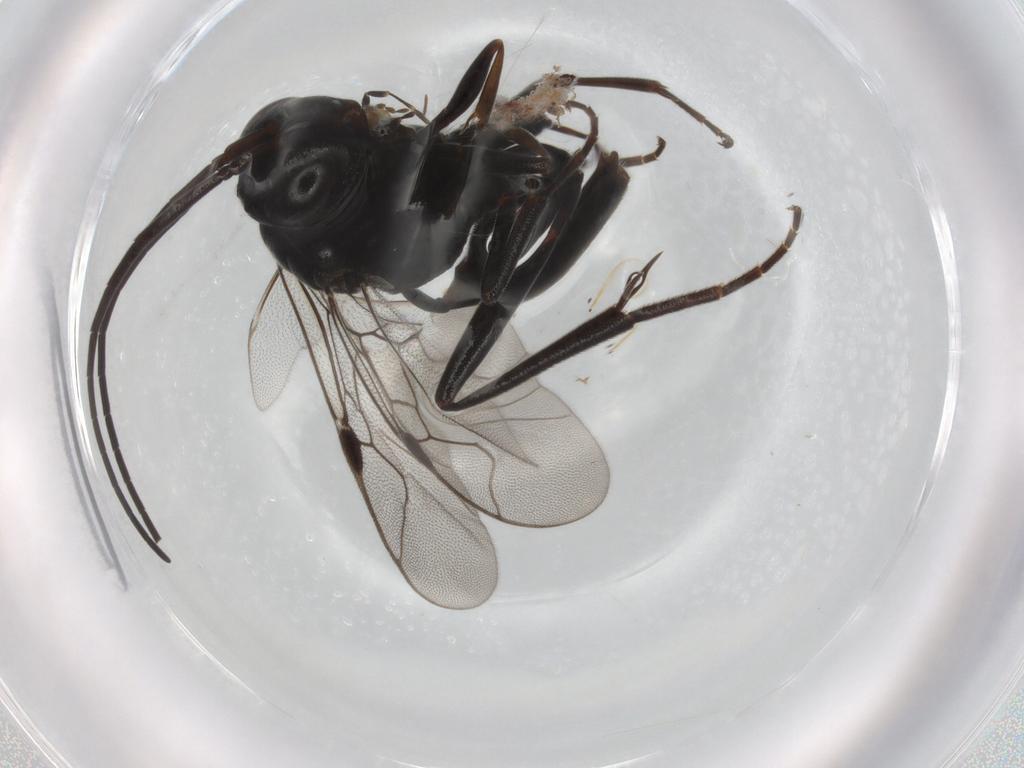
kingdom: Animalia
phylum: Arthropoda
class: Insecta
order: Hymenoptera
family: Evaniidae
